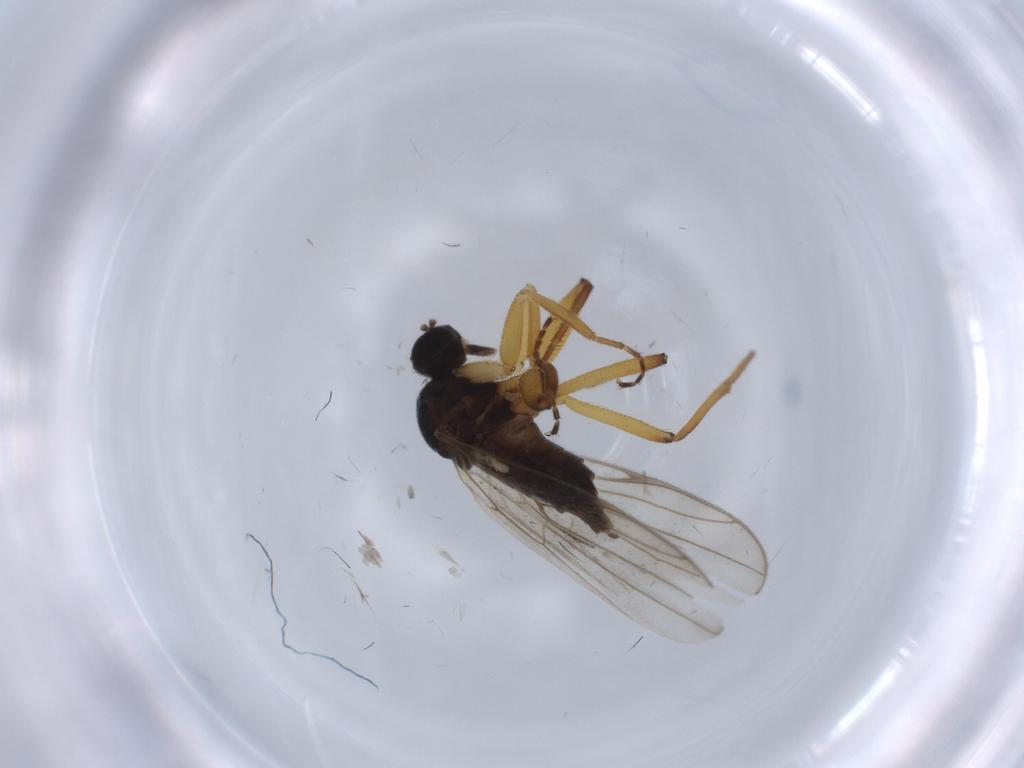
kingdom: Animalia
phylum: Arthropoda
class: Insecta
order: Diptera
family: Hybotidae
